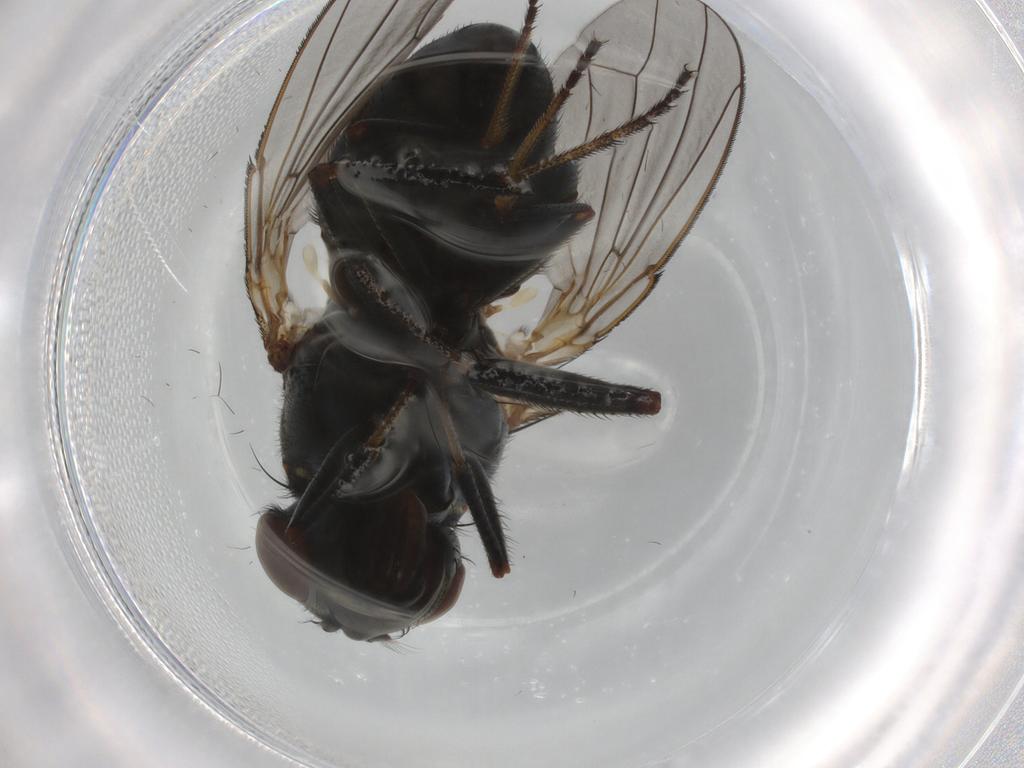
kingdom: Animalia
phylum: Arthropoda
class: Insecta
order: Diptera
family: Ephydridae
